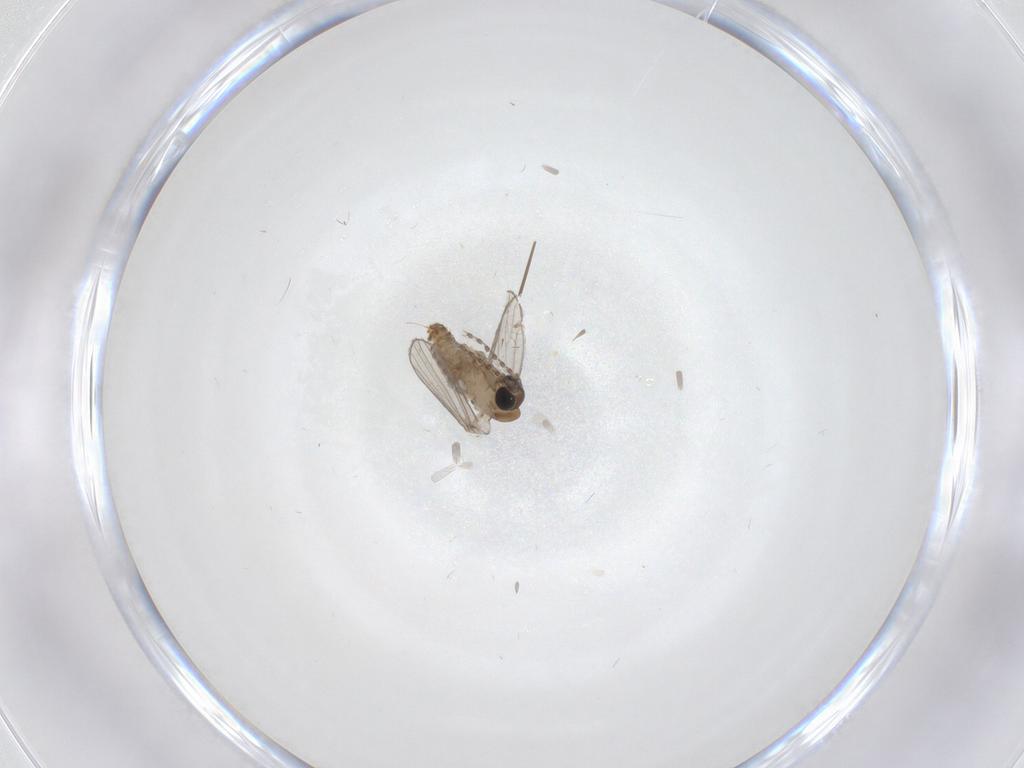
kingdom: Animalia
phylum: Arthropoda
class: Insecta
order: Diptera
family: Psychodidae
